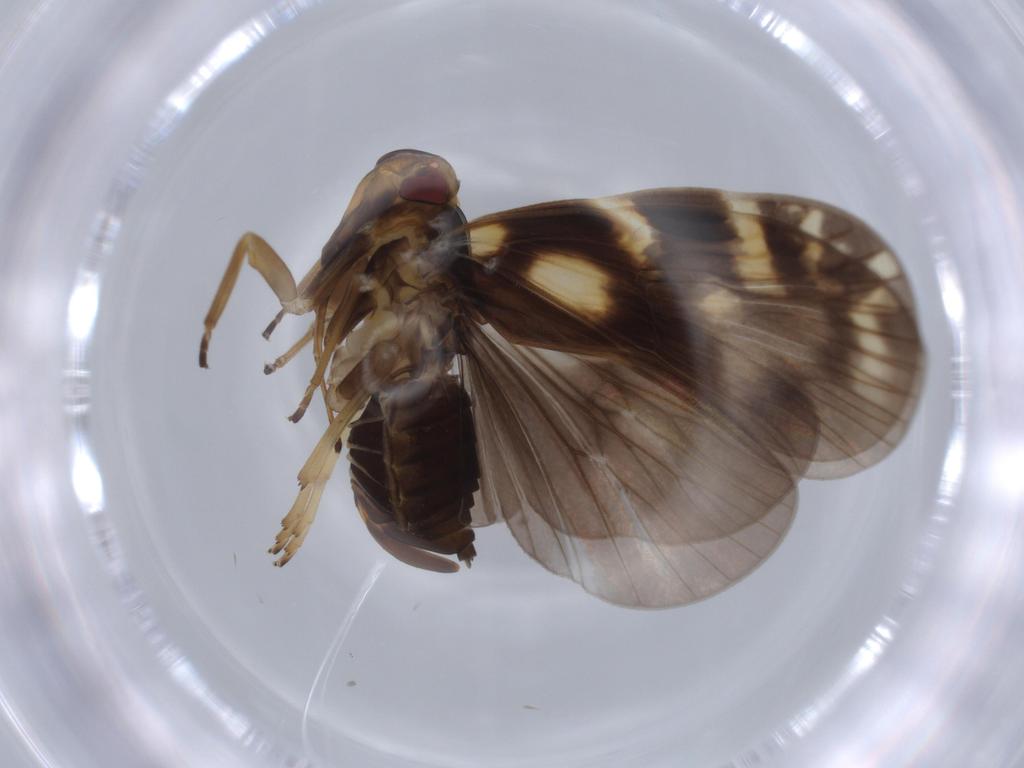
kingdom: Animalia
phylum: Arthropoda
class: Insecta
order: Hemiptera
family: Cixiidae
